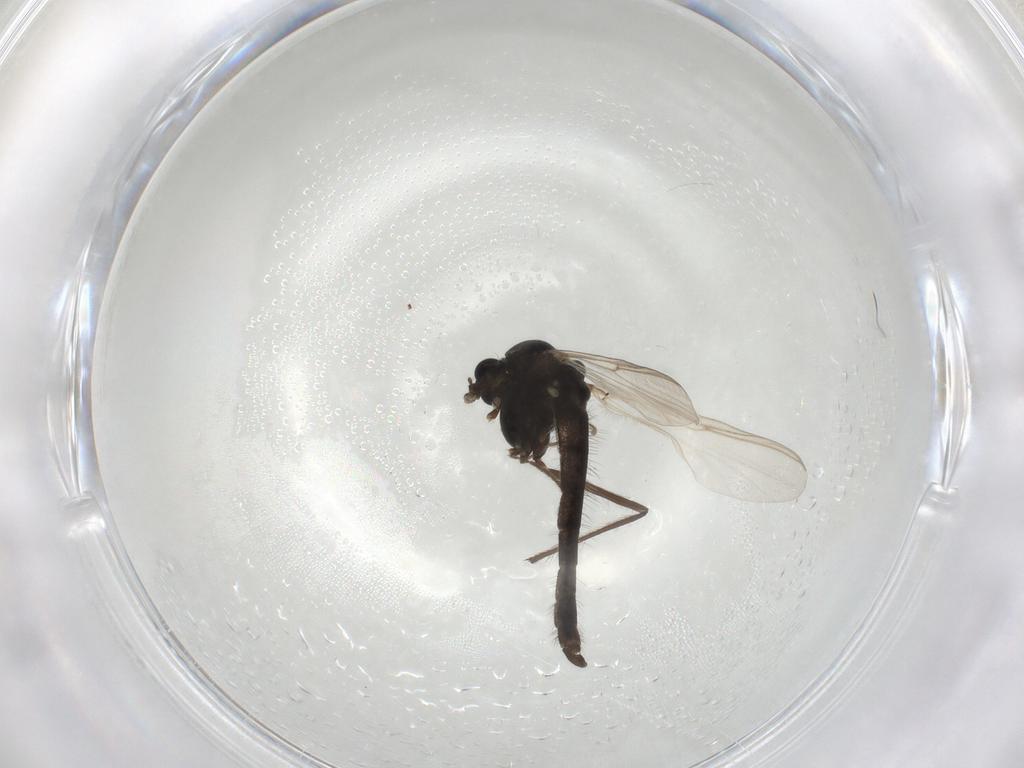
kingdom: Animalia
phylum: Arthropoda
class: Insecta
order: Diptera
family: Chironomidae
